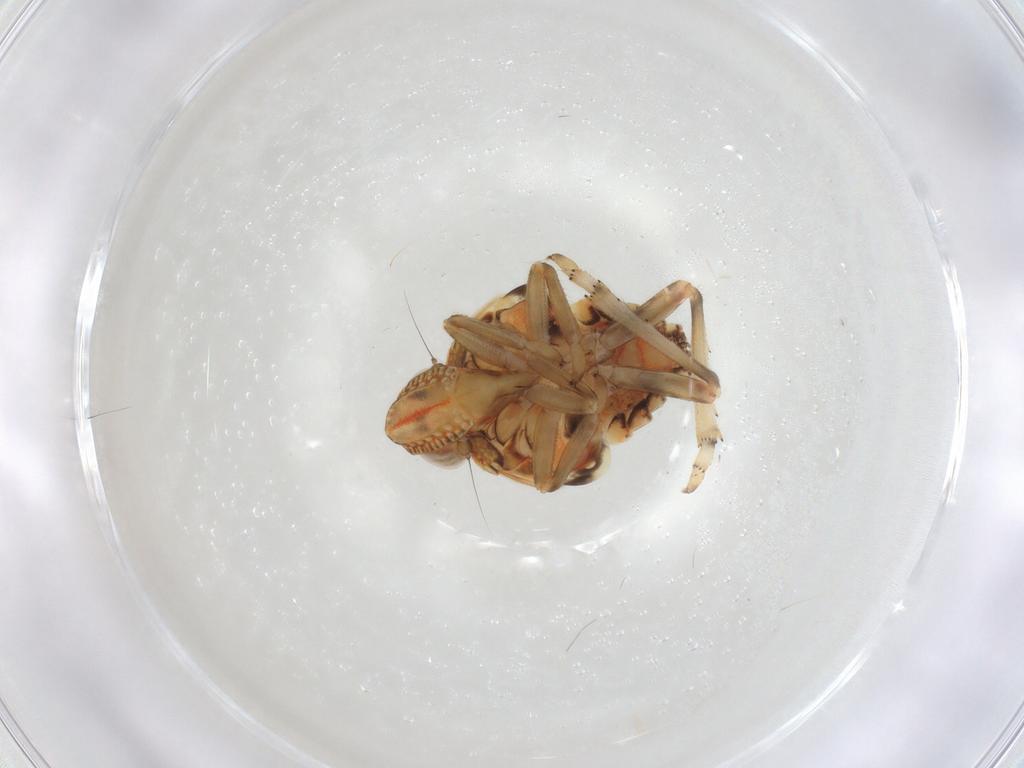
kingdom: Animalia
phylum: Arthropoda
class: Insecta
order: Hemiptera
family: Tropiduchidae
